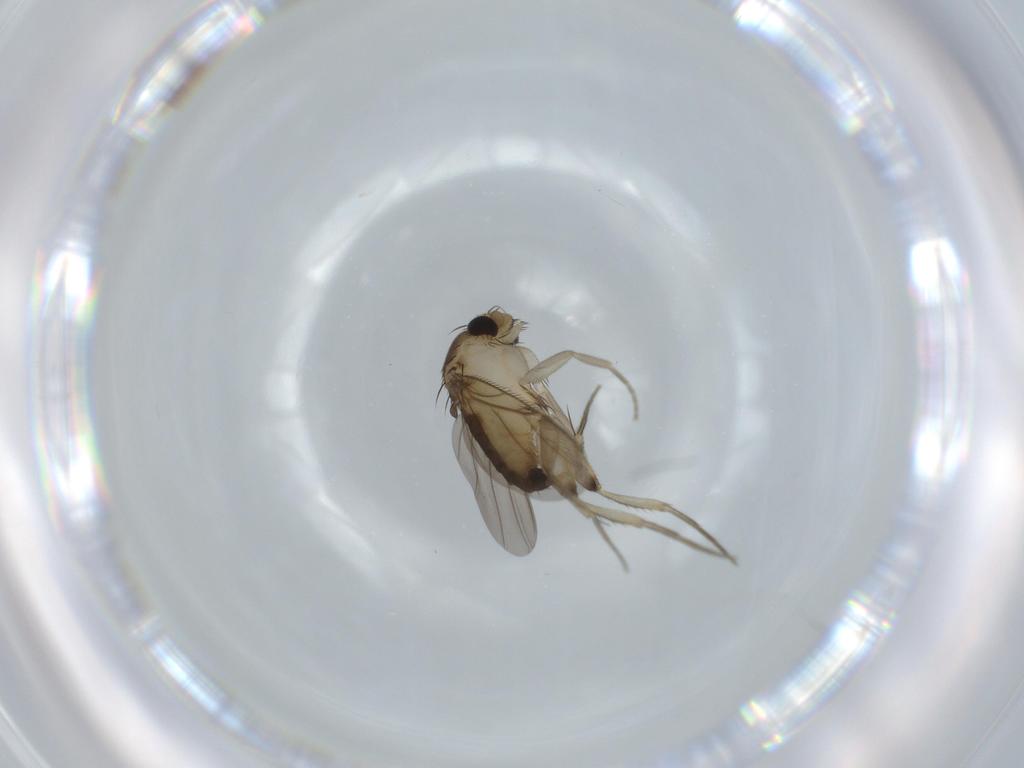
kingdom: Animalia
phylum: Arthropoda
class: Insecta
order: Diptera
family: Phoridae
